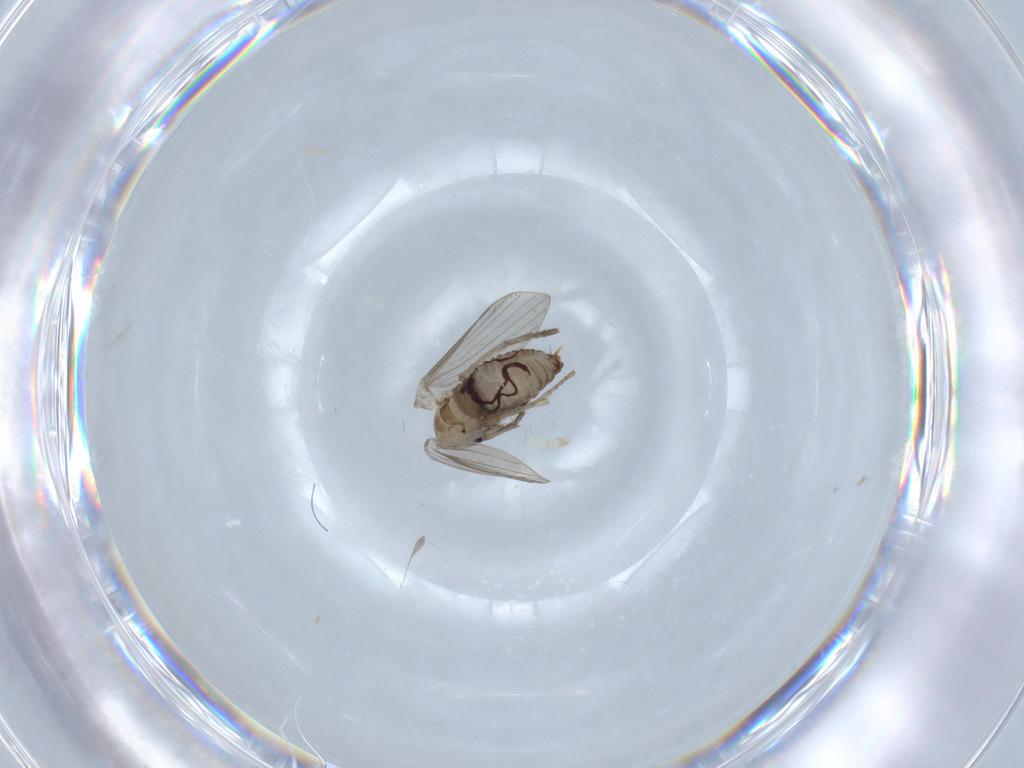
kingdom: Animalia
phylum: Arthropoda
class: Insecta
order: Diptera
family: Psychodidae
